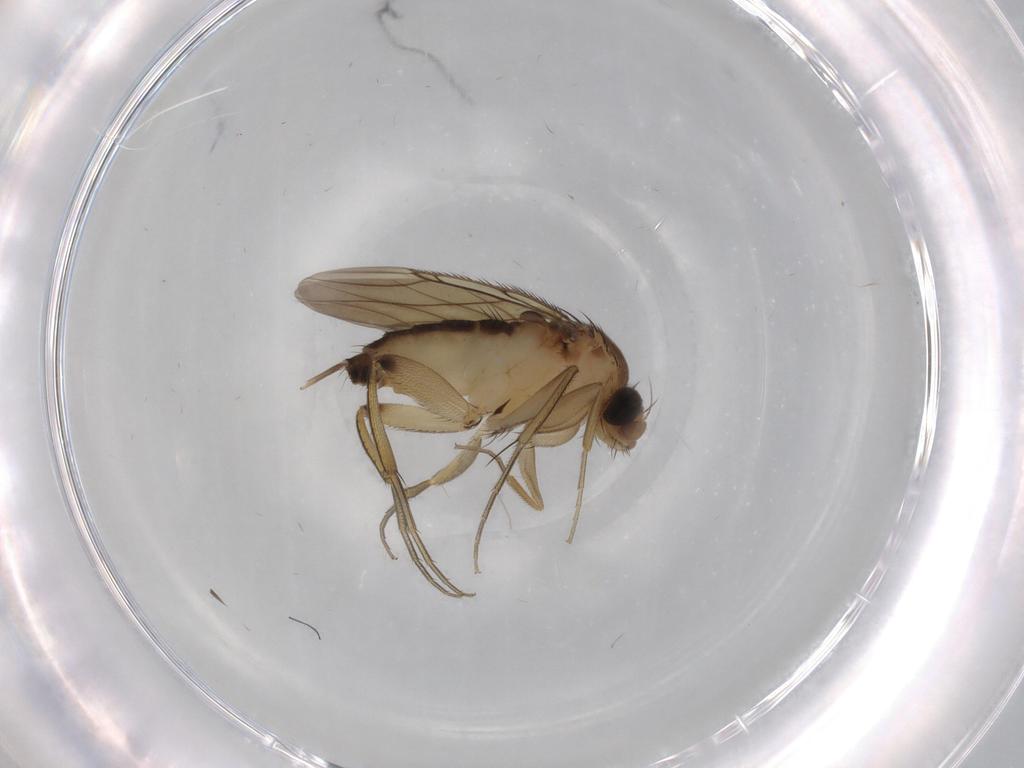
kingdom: Animalia
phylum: Arthropoda
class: Insecta
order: Diptera
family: Phoridae
